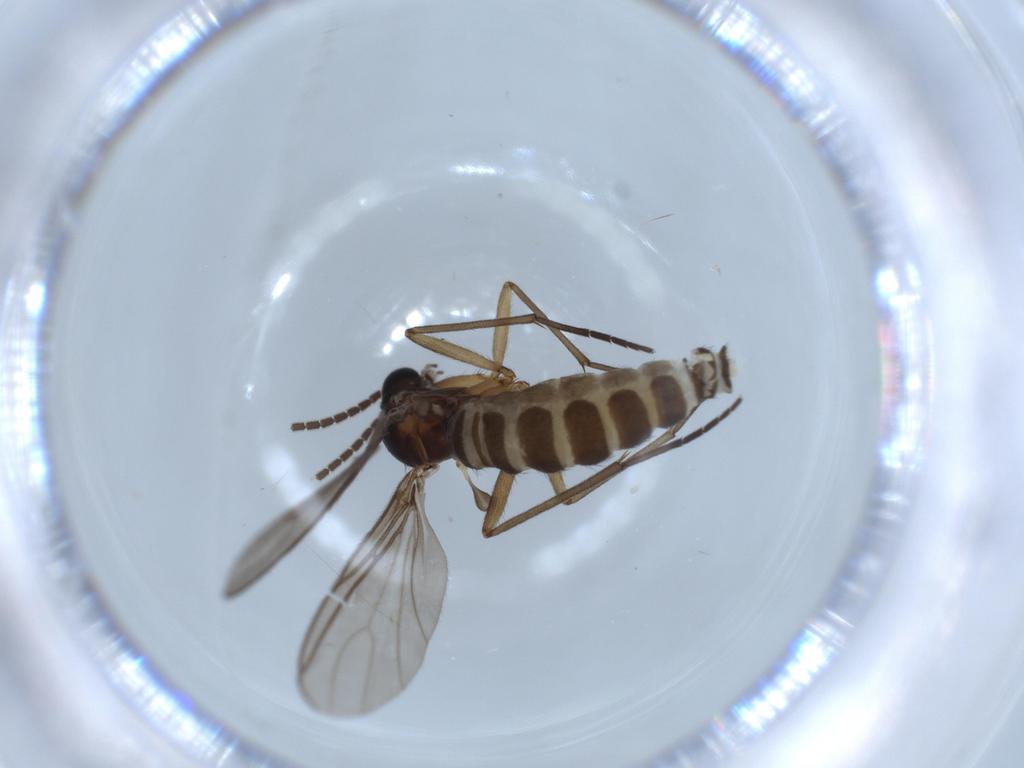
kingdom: Animalia
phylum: Arthropoda
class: Insecta
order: Diptera
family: Chironomidae
